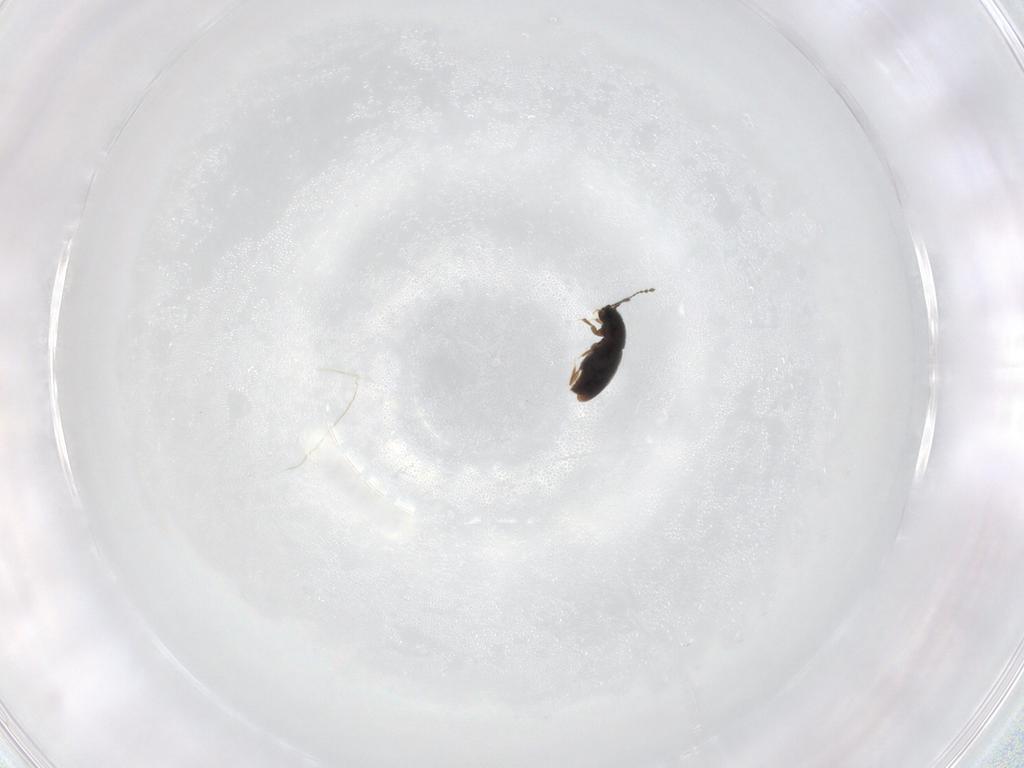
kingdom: Animalia
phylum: Arthropoda
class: Insecta
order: Coleoptera
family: Ptiliidae
